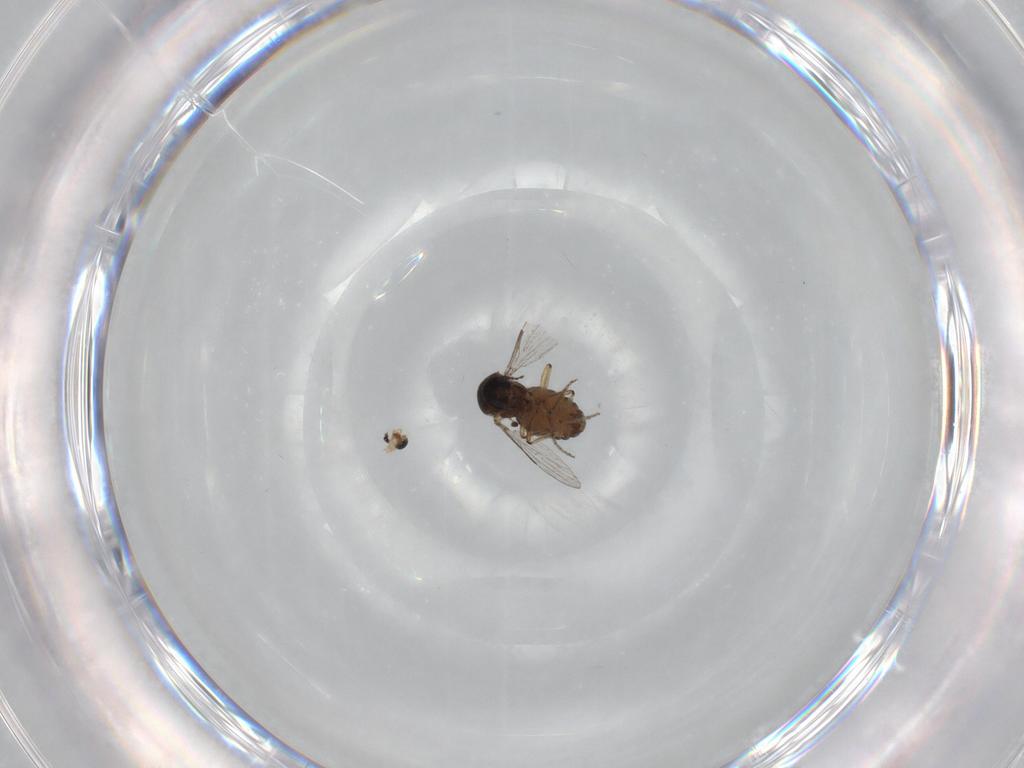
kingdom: Animalia
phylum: Arthropoda
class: Insecta
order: Diptera
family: Ceratopogonidae
